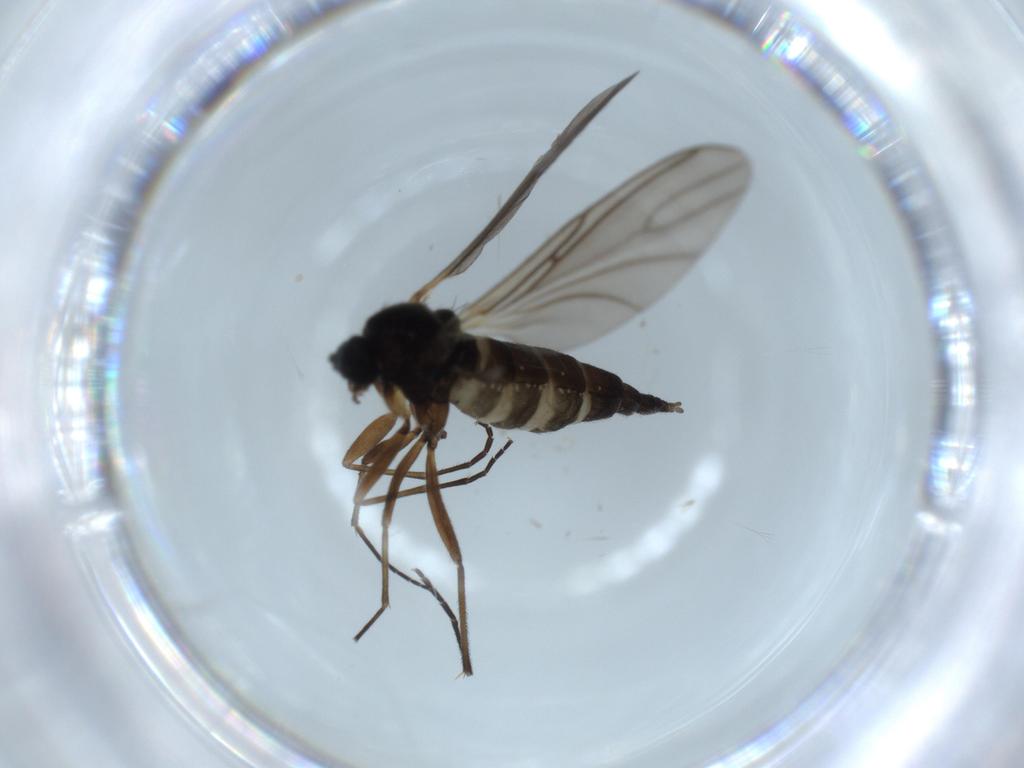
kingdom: Animalia
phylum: Arthropoda
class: Insecta
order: Diptera
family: Sciaridae
